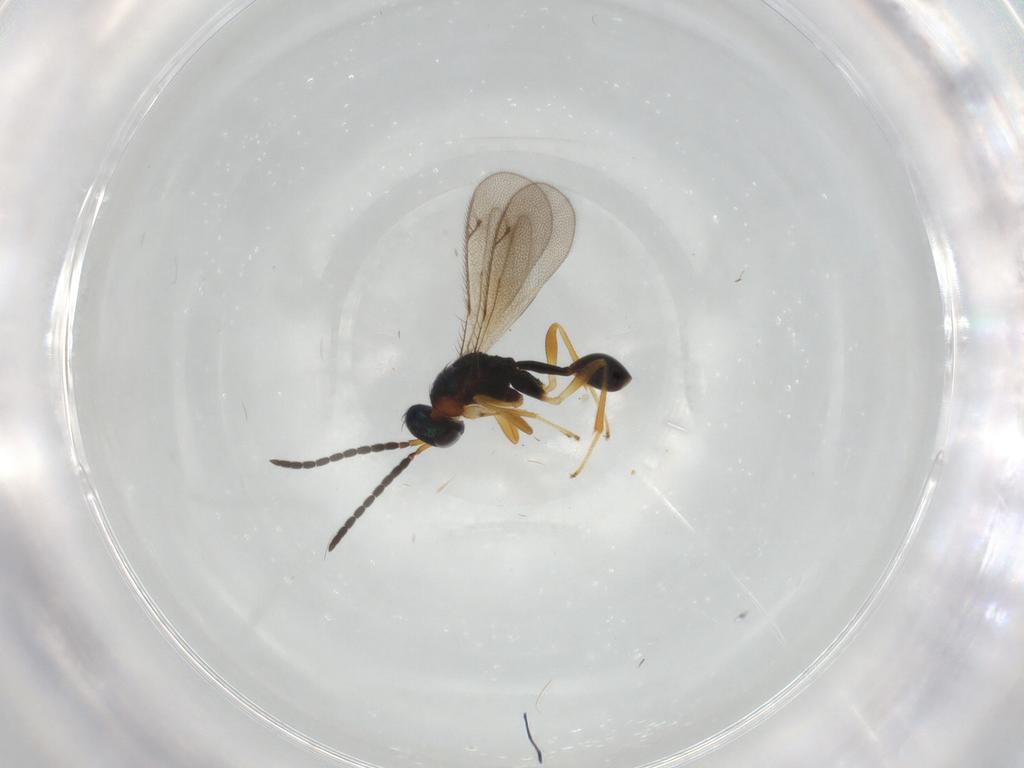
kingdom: Animalia
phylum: Arthropoda
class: Insecta
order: Hymenoptera
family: Diparidae
